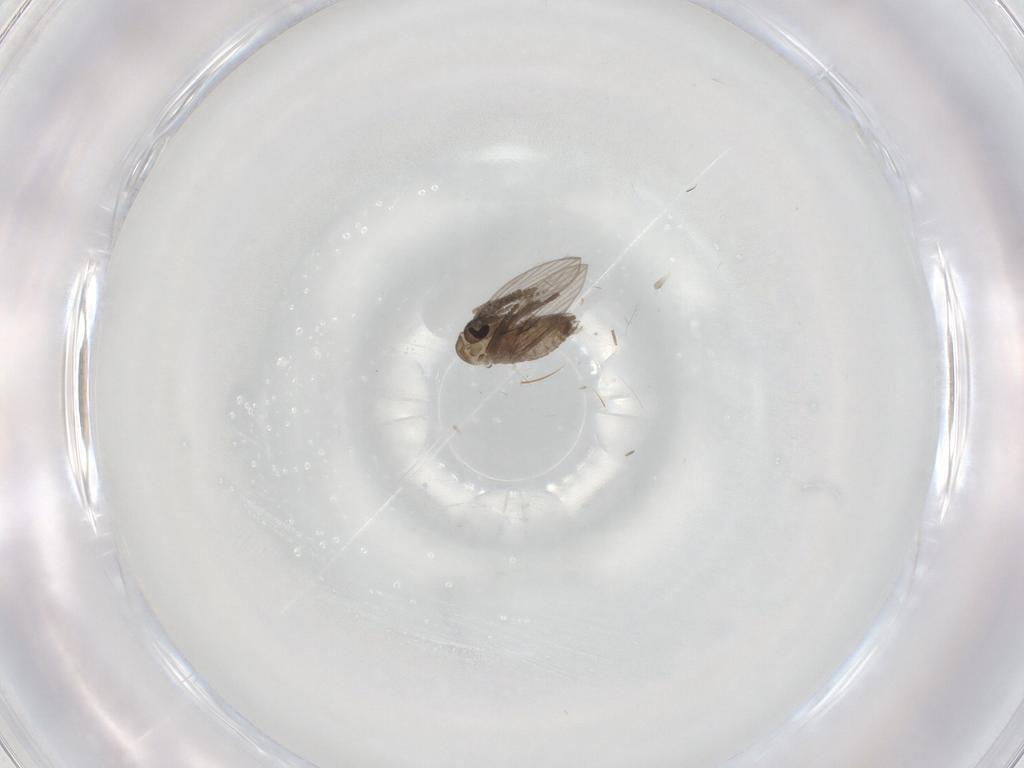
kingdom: Animalia
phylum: Arthropoda
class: Insecta
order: Diptera
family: Psychodidae
